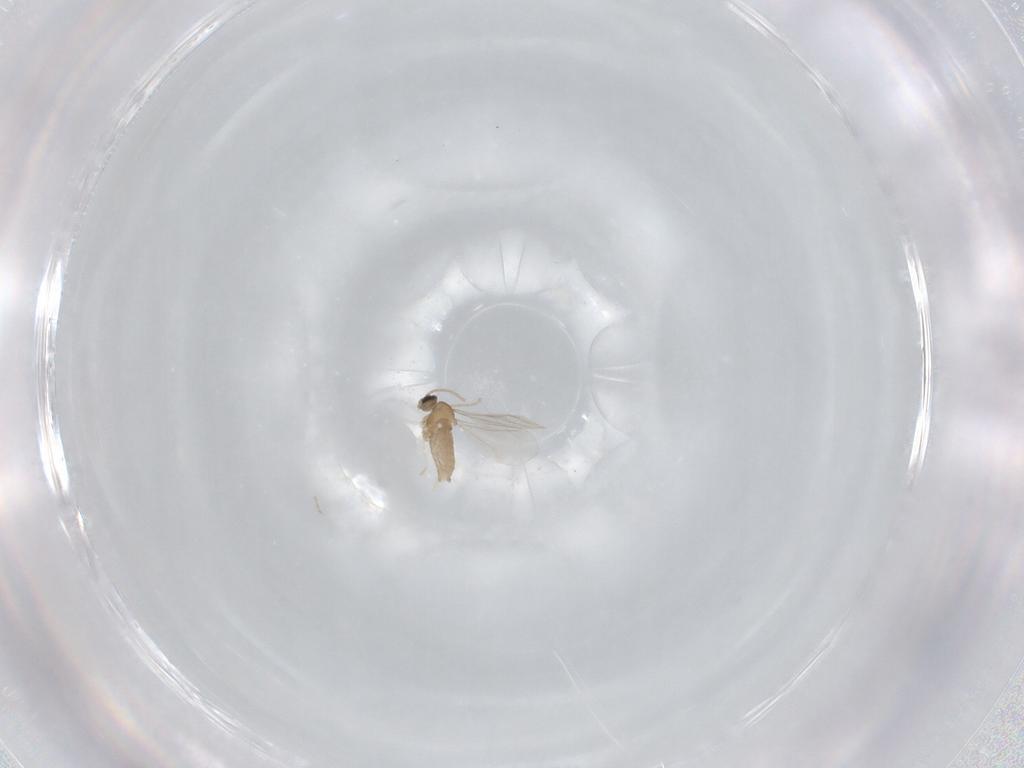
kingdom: Animalia
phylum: Arthropoda
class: Insecta
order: Diptera
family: Cecidomyiidae
